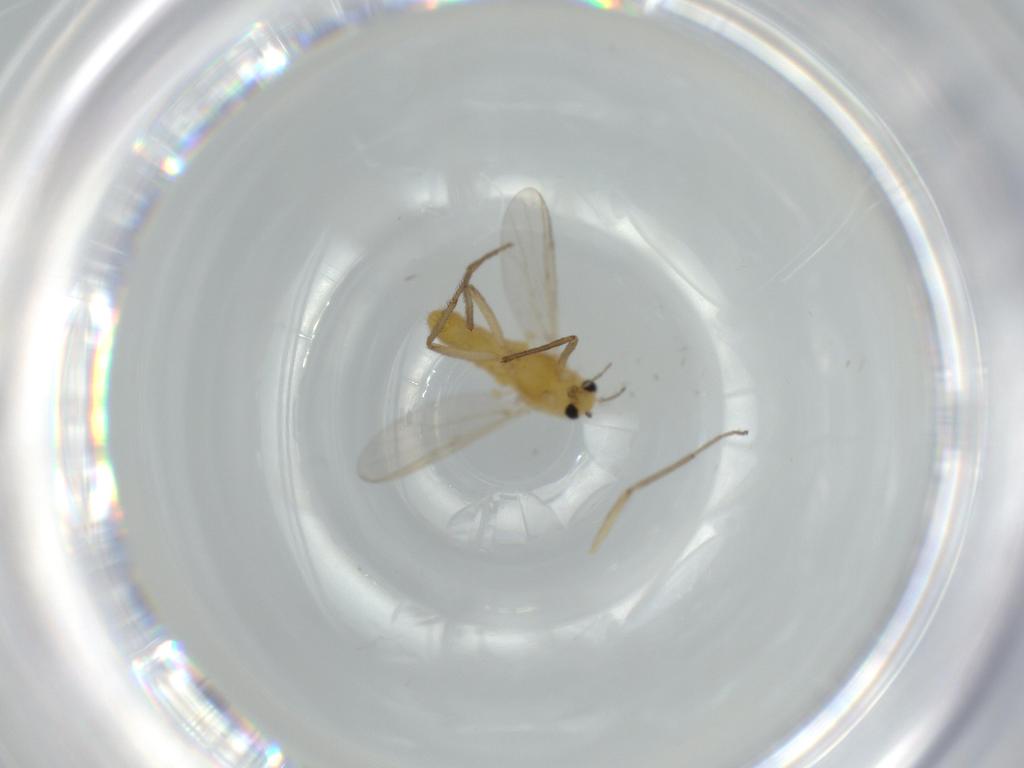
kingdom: Animalia
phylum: Arthropoda
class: Insecta
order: Diptera
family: Chironomidae
